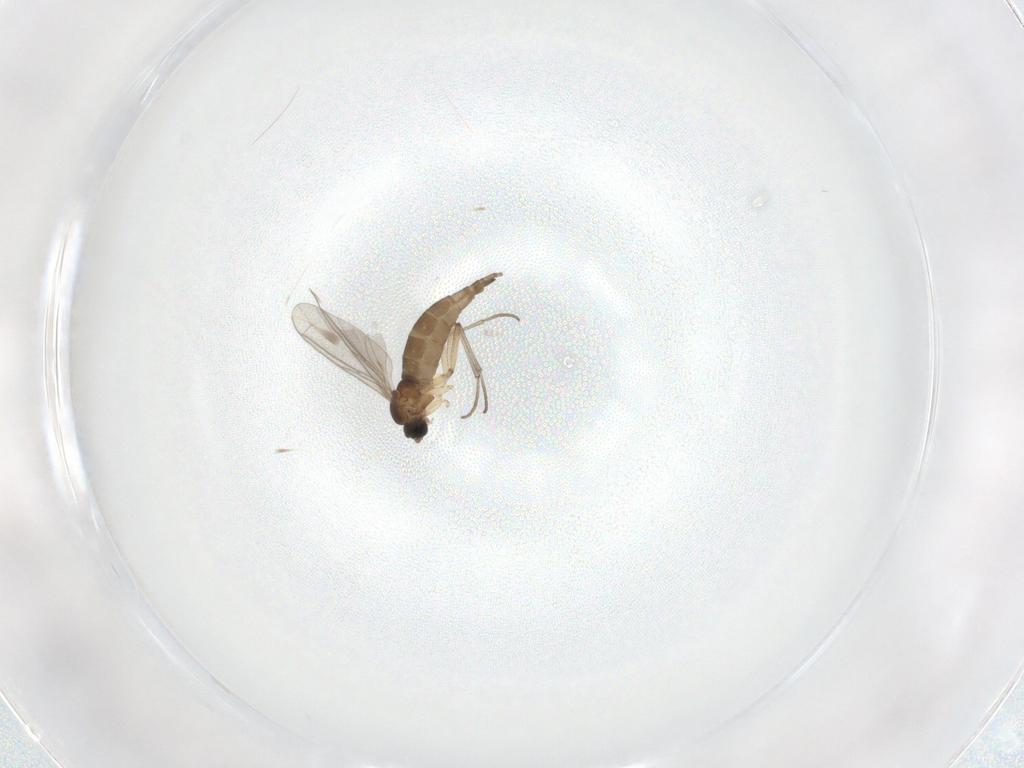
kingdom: Animalia
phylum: Arthropoda
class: Insecta
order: Diptera
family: Sciaridae
